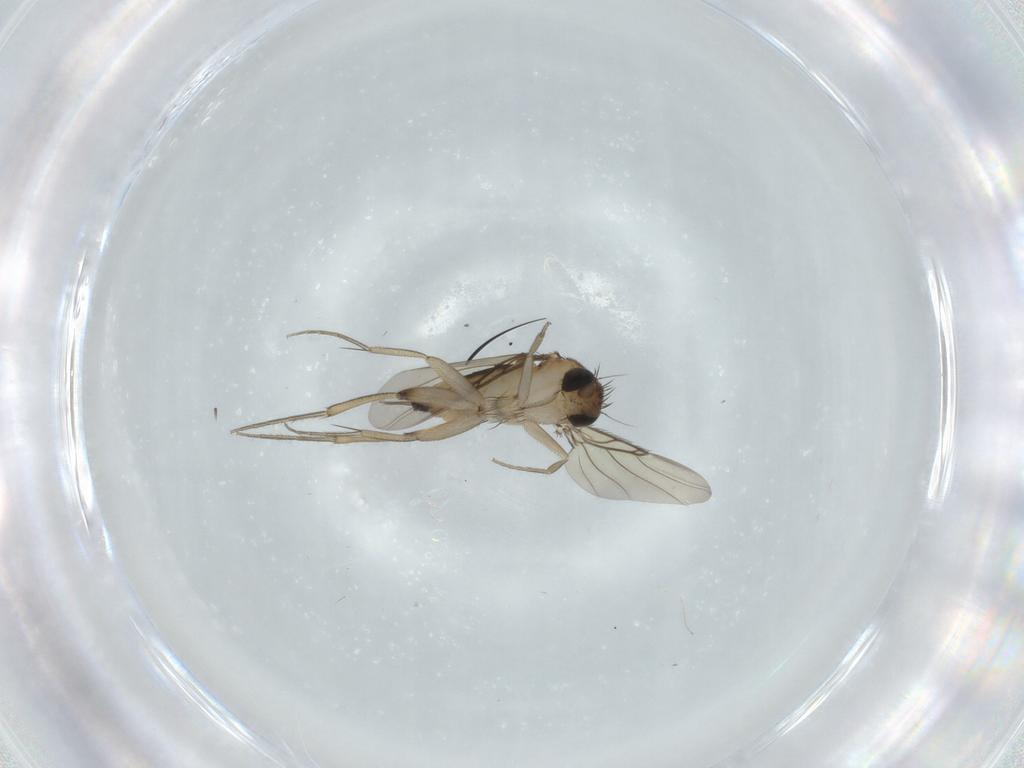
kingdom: Animalia
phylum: Arthropoda
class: Insecta
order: Diptera
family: Phoridae
